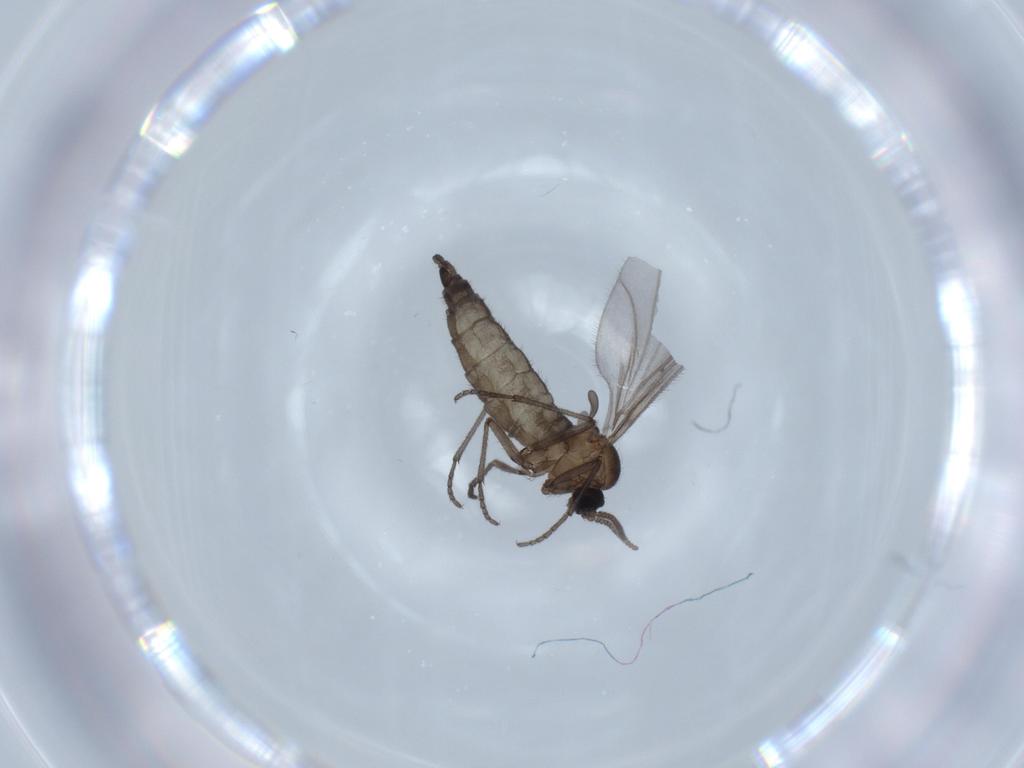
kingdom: Animalia
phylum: Arthropoda
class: Insecta
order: Diptera
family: Sciaridae
